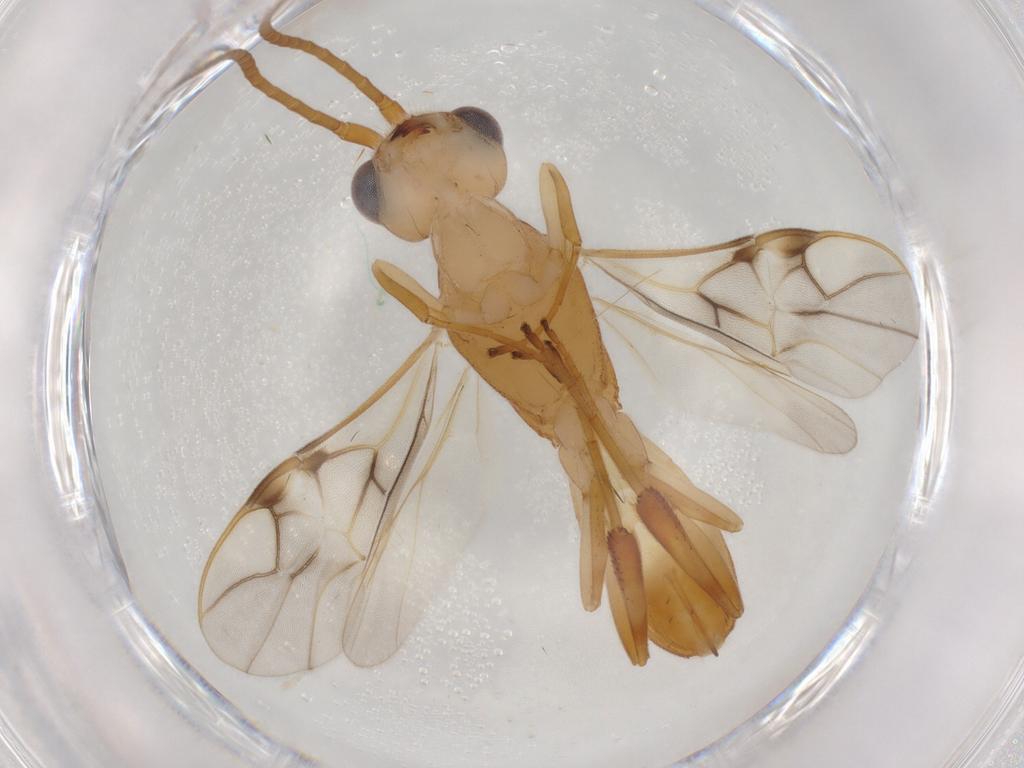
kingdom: Animalia
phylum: Arthropoda
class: Insecta
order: Hymenoptera
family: Braconidae
